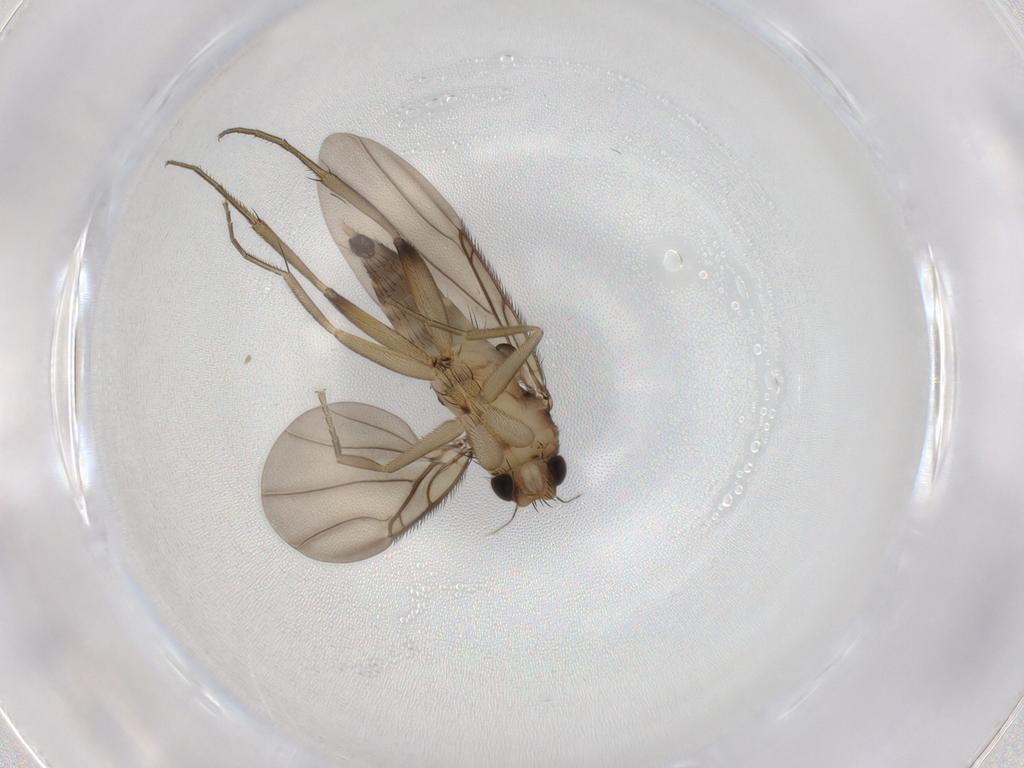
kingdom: Animalia
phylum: Arthropoda
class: Insecta
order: Diptera
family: Phoridae
